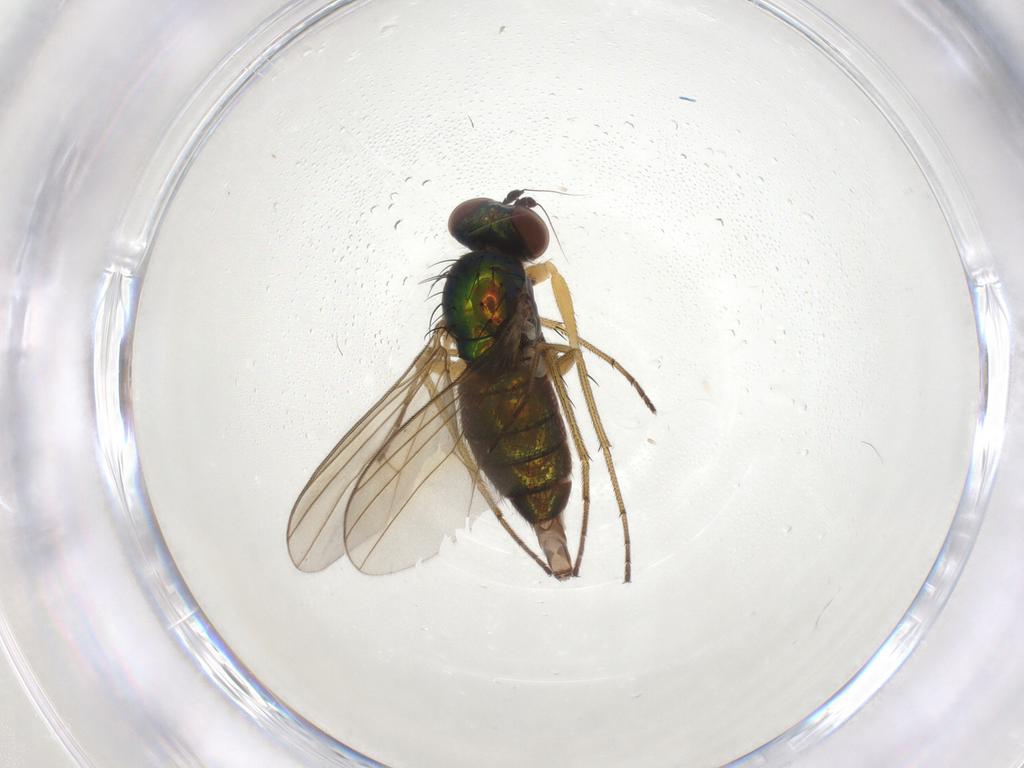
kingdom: Animalia
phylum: Arthropoda
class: Insecta
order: Diptera
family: Dolichopodidae
